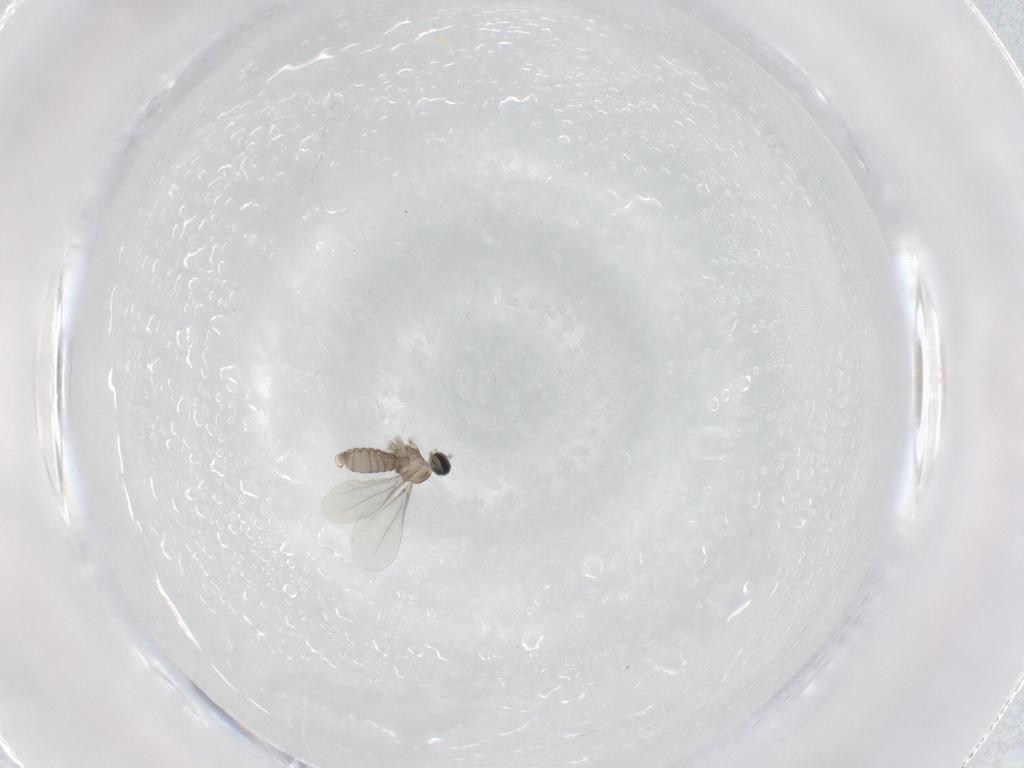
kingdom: Animalia
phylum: Arthropoda
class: Insecta
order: Diptera
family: Cecidomyiidae
